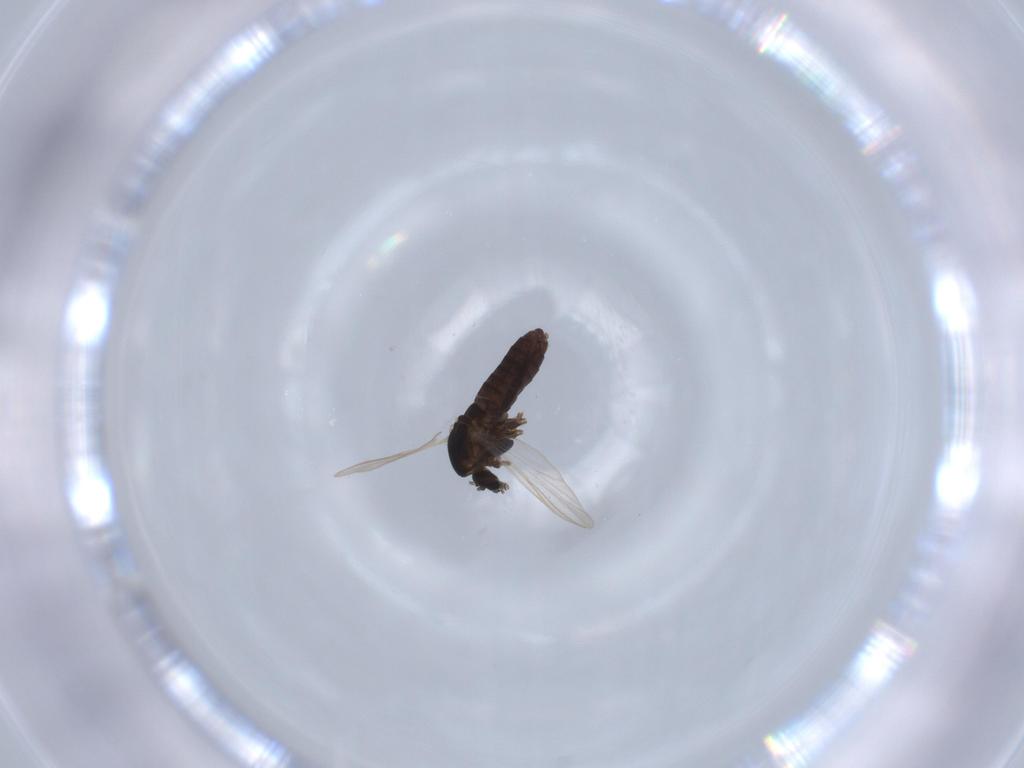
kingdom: Animalia
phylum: Arthropoda
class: Insecta
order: Diptera
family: Chironomidae
